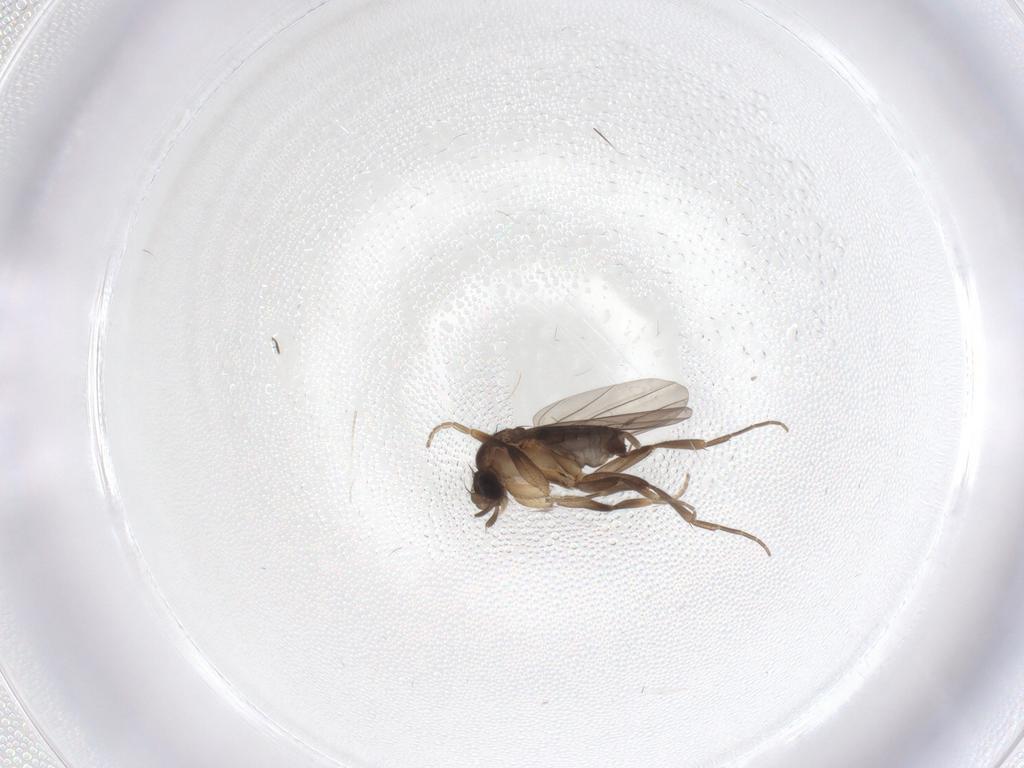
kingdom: Animalia
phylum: Arthropoda
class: Insecta
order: Diptera
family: Phoridae
